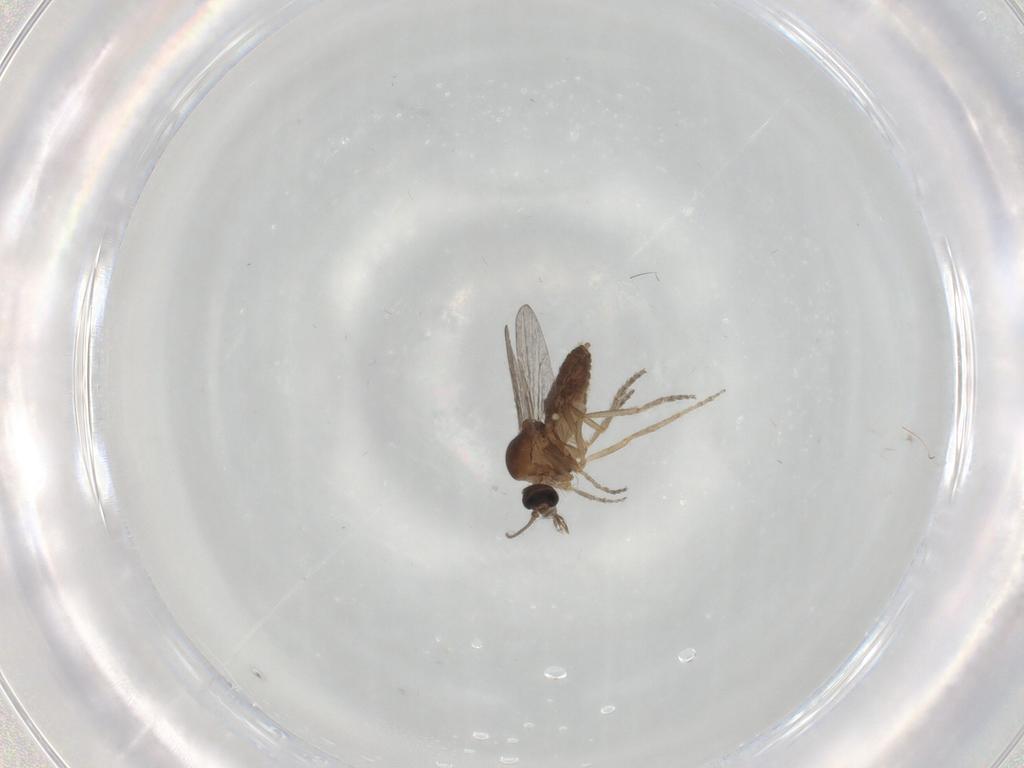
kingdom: Animalia
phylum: Arthropoda
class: Insecta
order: Diptera
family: Ceratopogonidae
